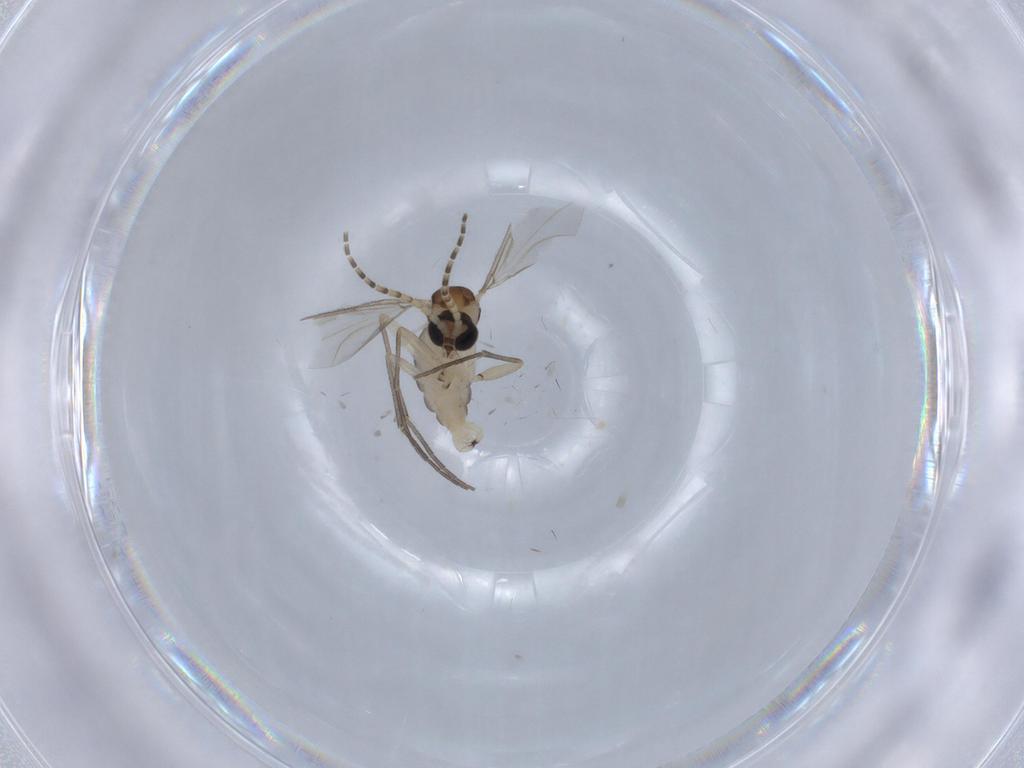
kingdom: Animalia
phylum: Arthropoda
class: Insecta
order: Diptera
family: Sciaridae
